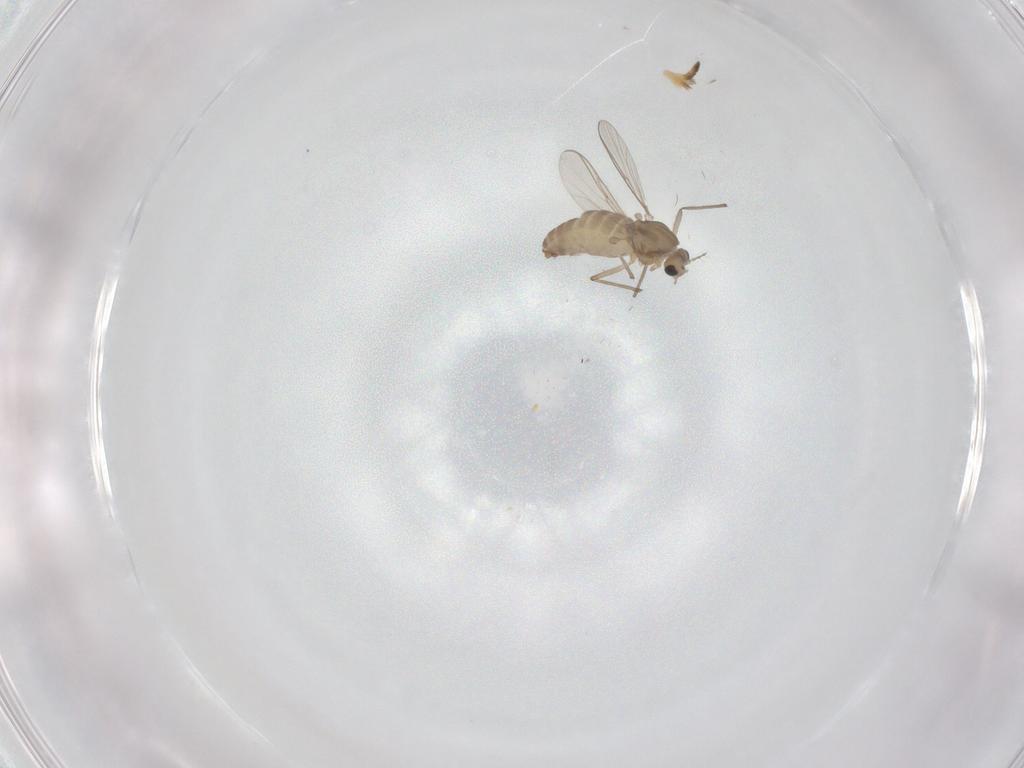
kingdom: Animalia
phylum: Arthropoda
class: Insecta
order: Diptera
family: Chironomidae
